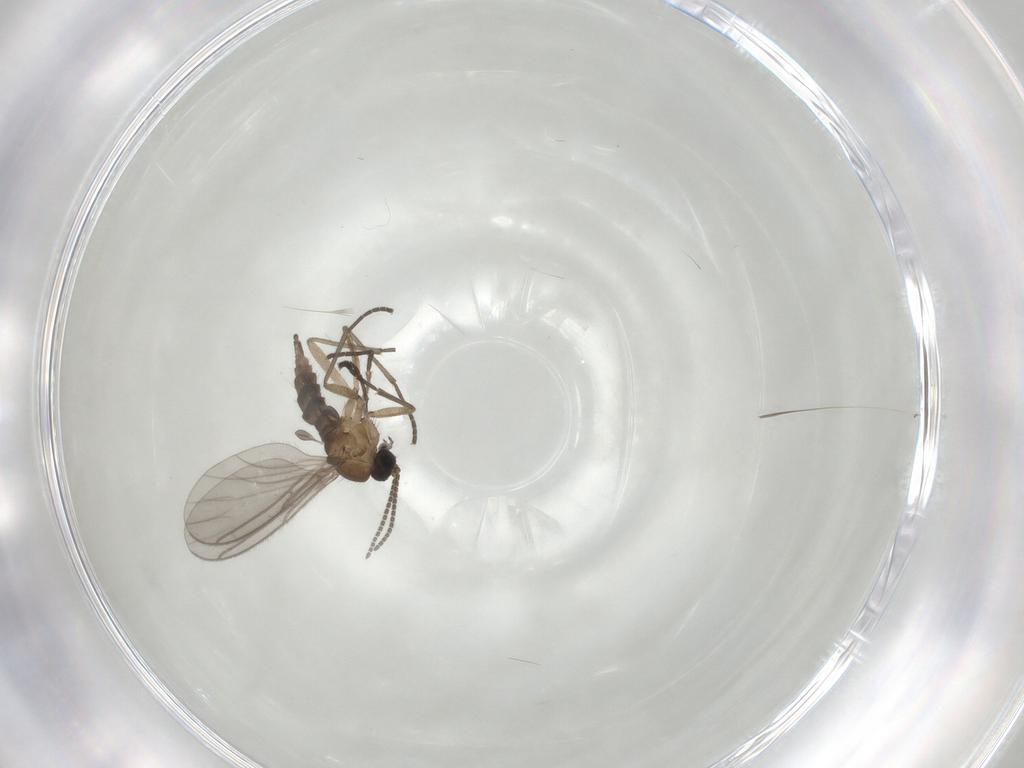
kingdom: Animalia
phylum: Arthropoda
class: Insecta
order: Diptera
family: Sciaridae
